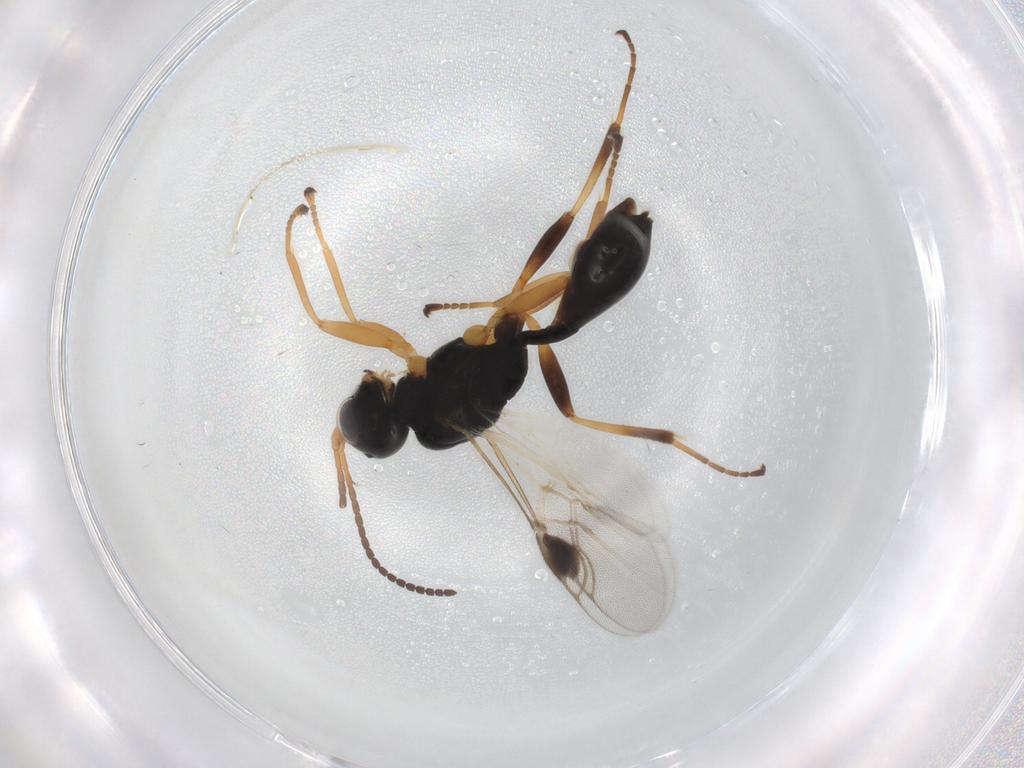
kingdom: Animalia
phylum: Arthropoda
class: Insecta
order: Hymenoptera
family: Braconidae
